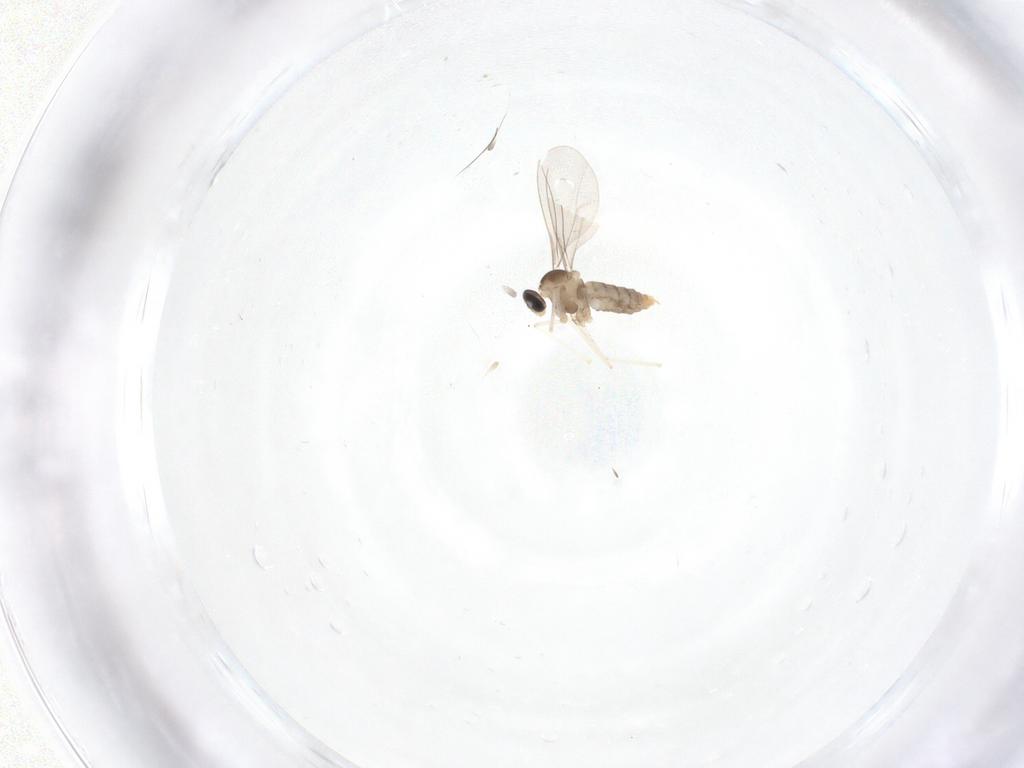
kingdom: Animalia
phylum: Arthropoda
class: Insecta
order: Diptera
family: Cecidomyiidae
